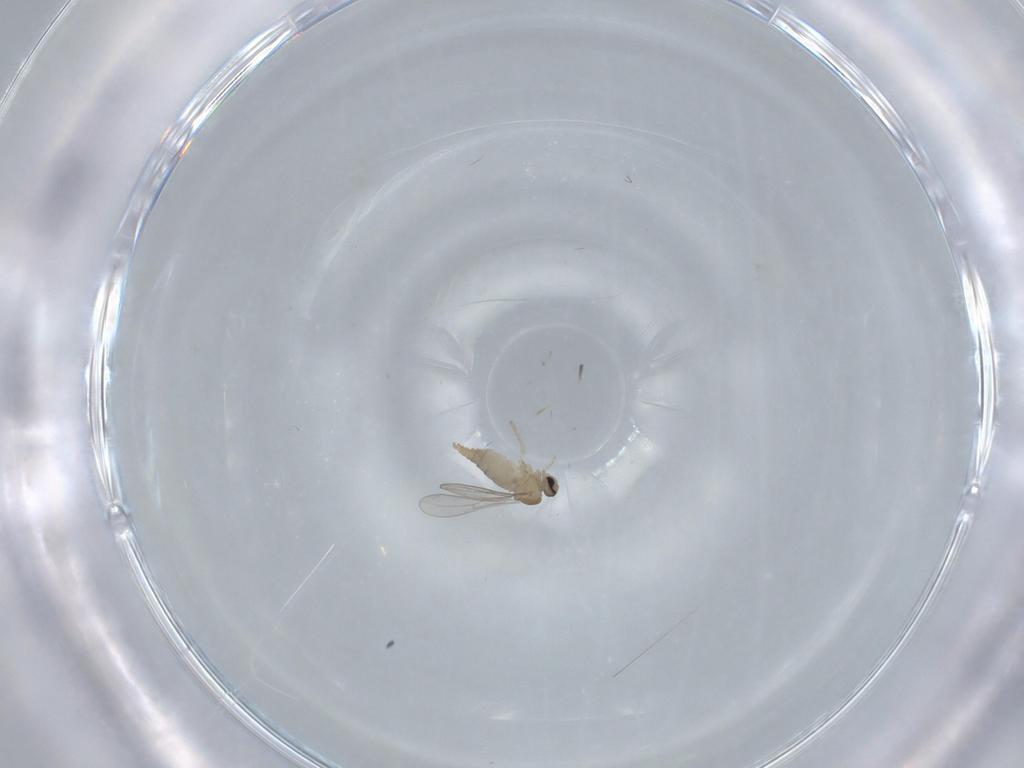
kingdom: Animalia
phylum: Arthropoda
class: Insecta
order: Diptera
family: Cecidomyiidae
